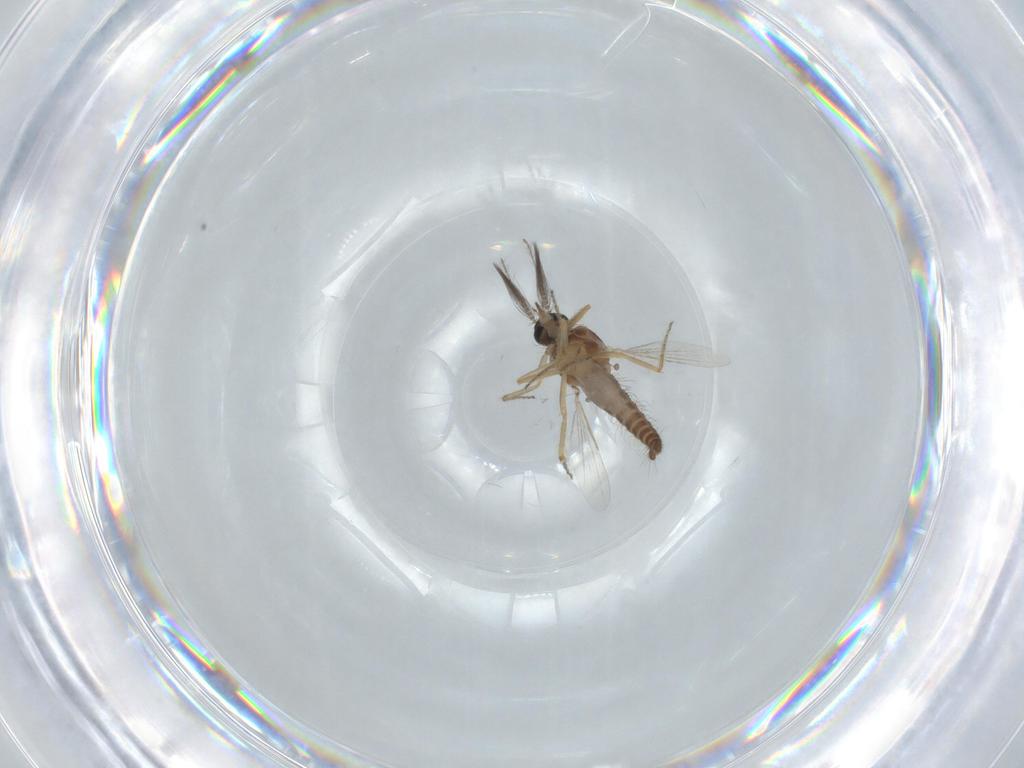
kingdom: Animalia
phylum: Arthropoda
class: Insecta
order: Diptera
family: Ceratopogonidae
